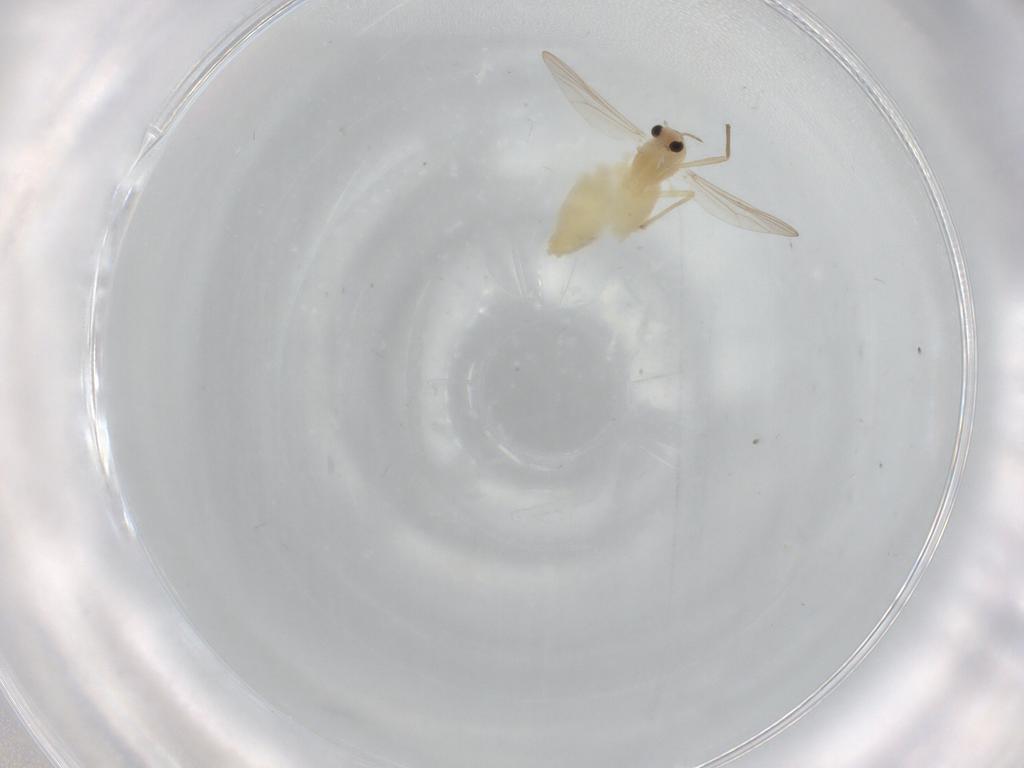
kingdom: Animalia
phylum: Arthropoda
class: Insecta
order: Diptera
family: Chironomidae
